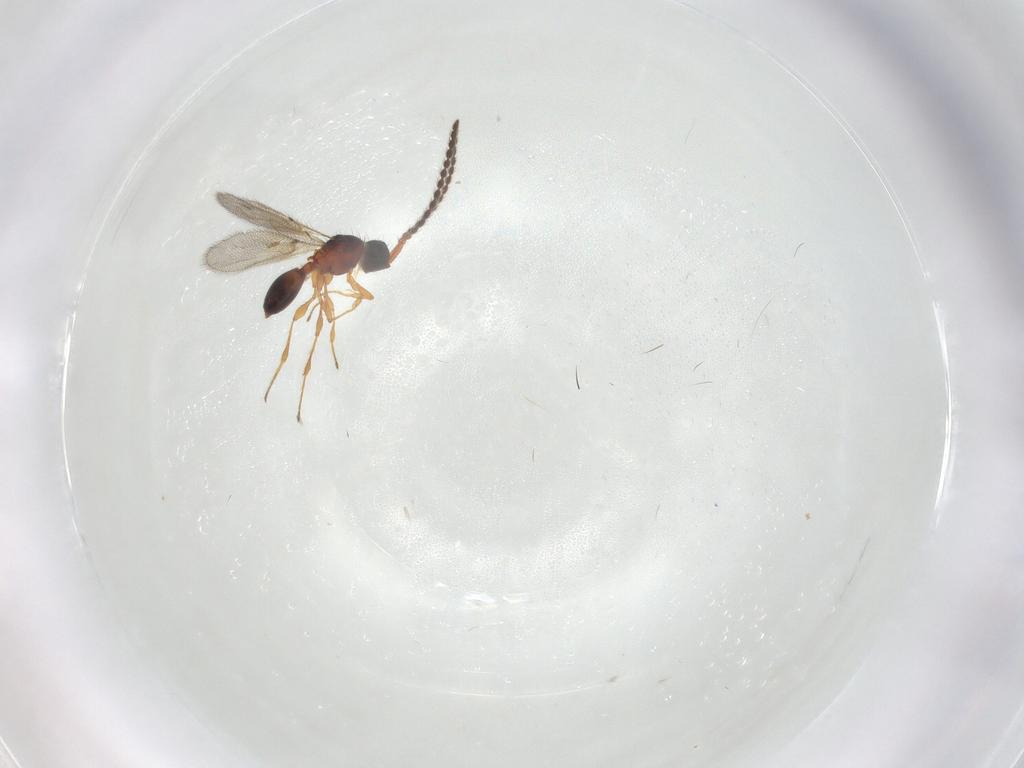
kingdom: Animalia
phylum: Arthropoda
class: Insecta
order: Hymenoptera
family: Diapriidae
